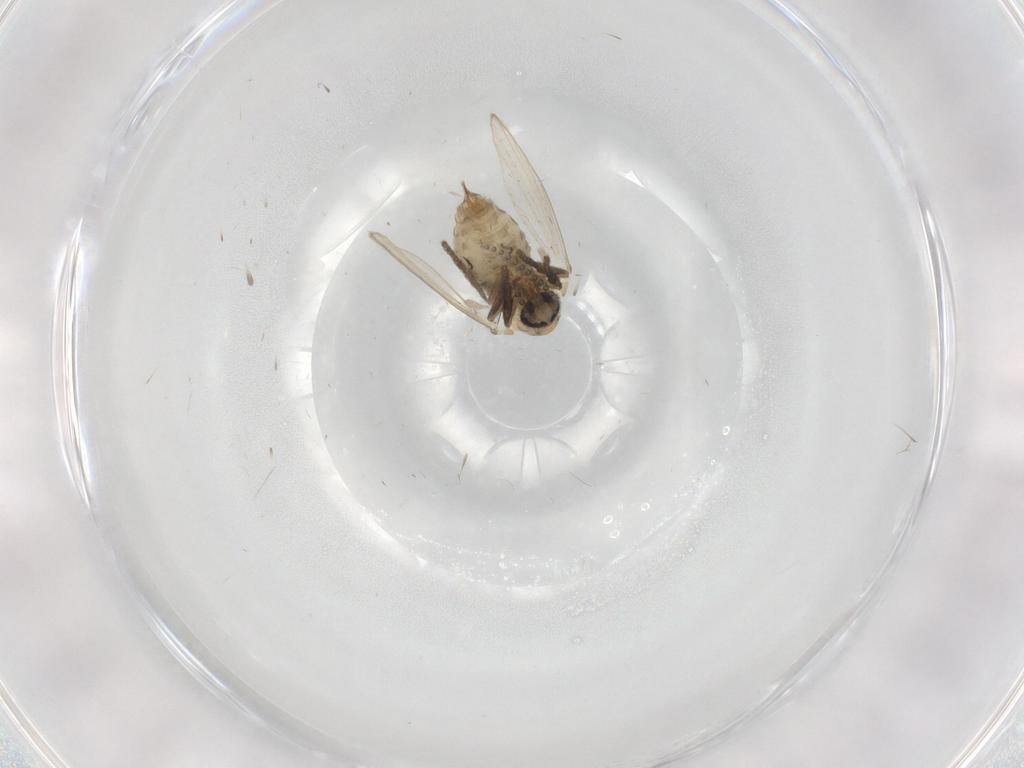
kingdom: Animalia
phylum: Arthropoda
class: Insecta
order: Diptera
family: Psychodidae
